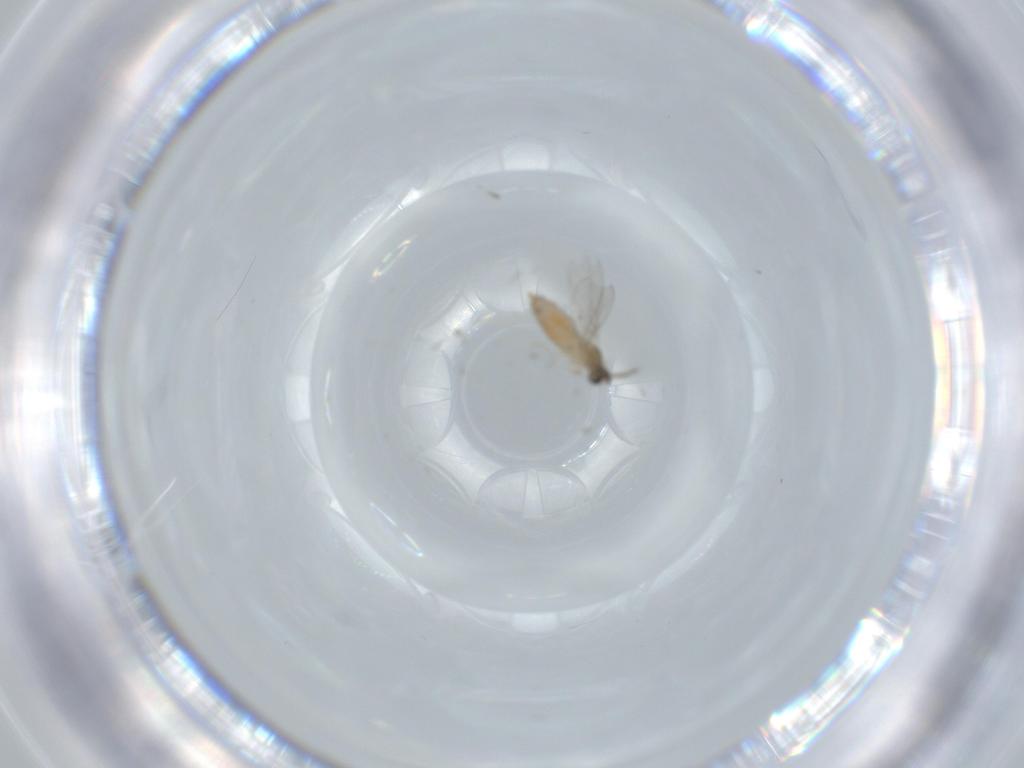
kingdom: Animalia
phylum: Arthropoda
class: Insecta
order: Diptera
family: Cecidomyiidae
